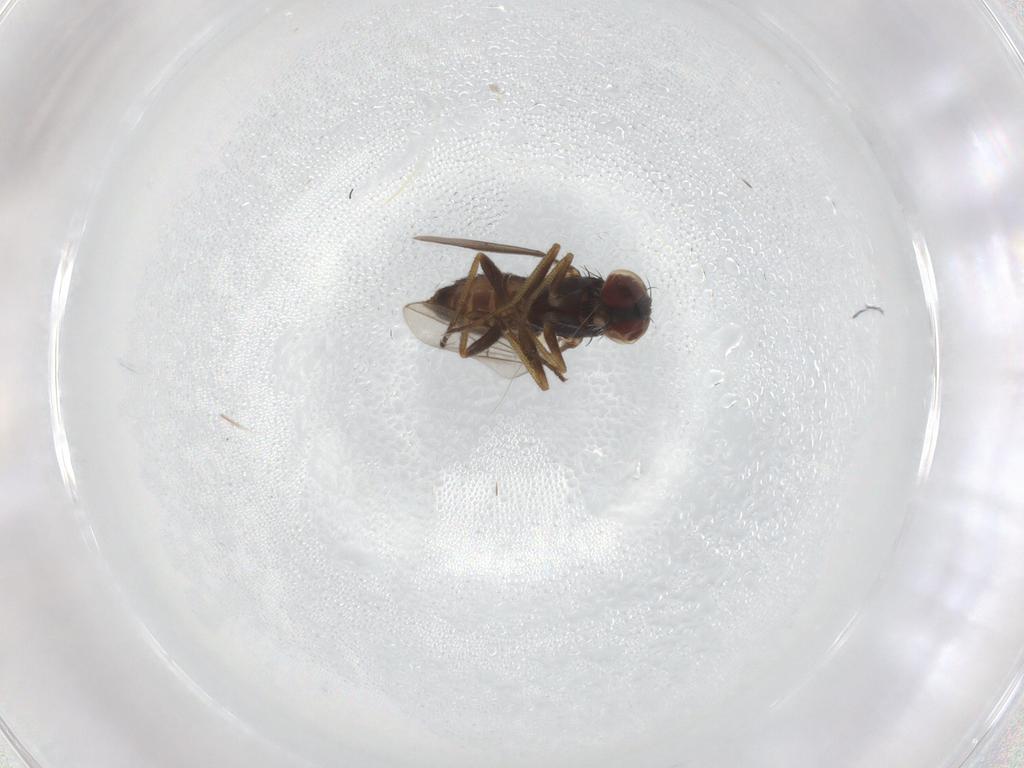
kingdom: Animalia
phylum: Arthropoda
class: Insecta
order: Diptera
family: Dolichopodidae
